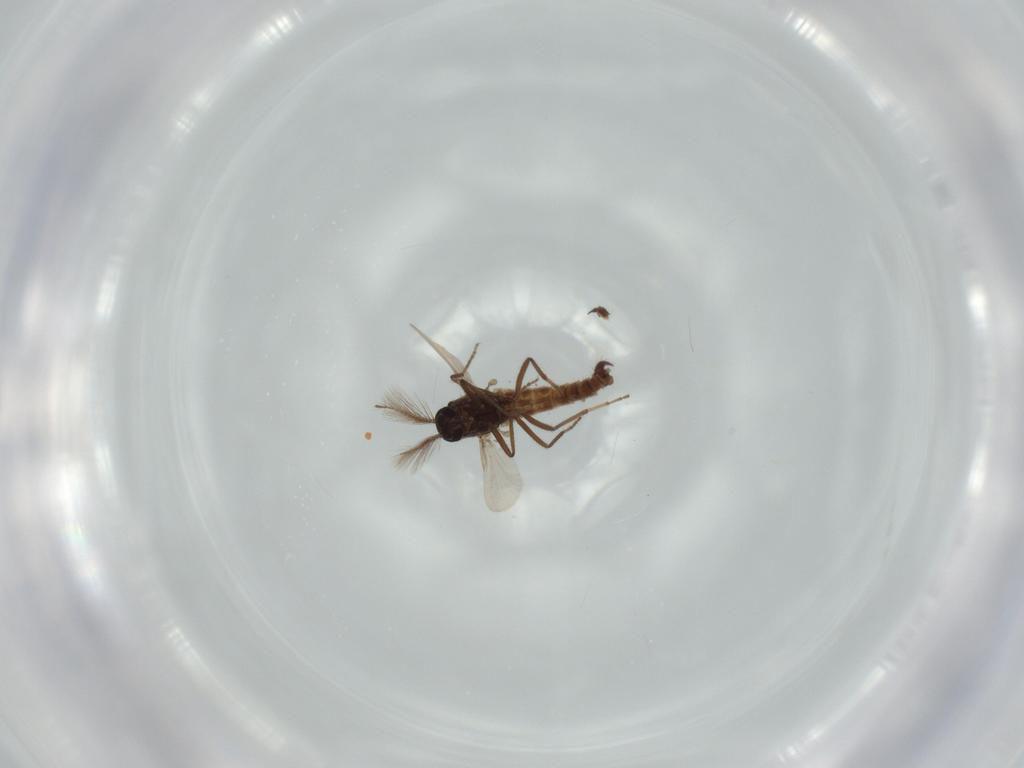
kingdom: Animalia
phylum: Arthropoda
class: Insecta
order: Diptera
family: Ceratopogonidae
